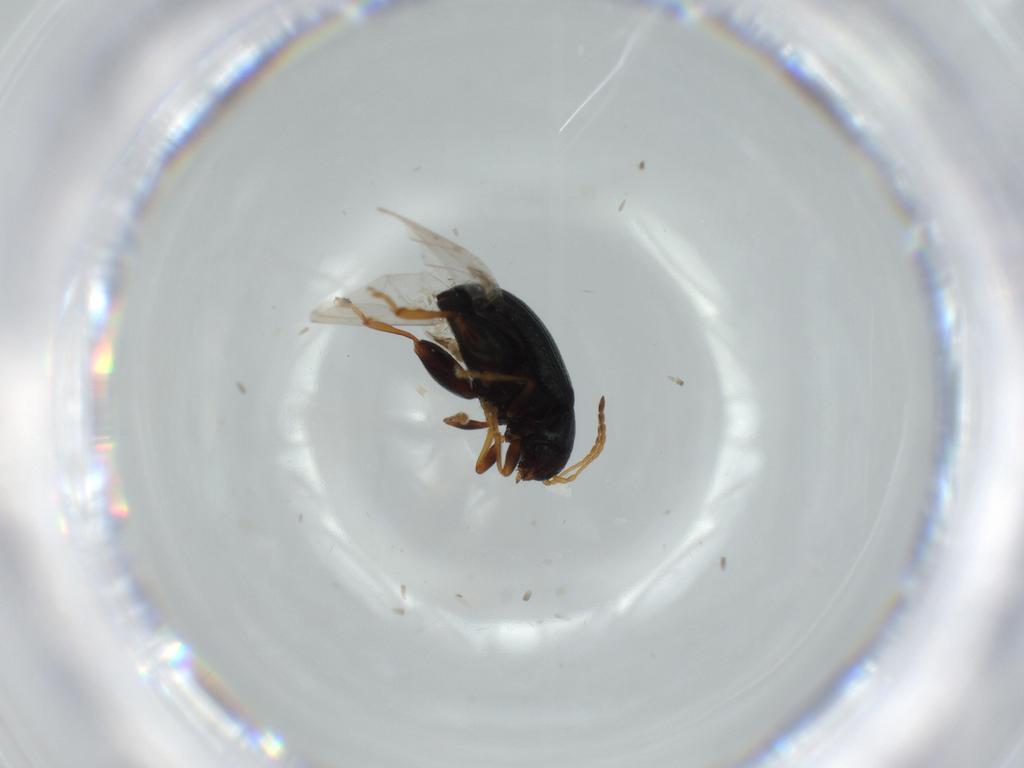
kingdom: Animalia
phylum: Arthropoda
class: Insecta
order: Coleoptera
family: Chrysomelidae
